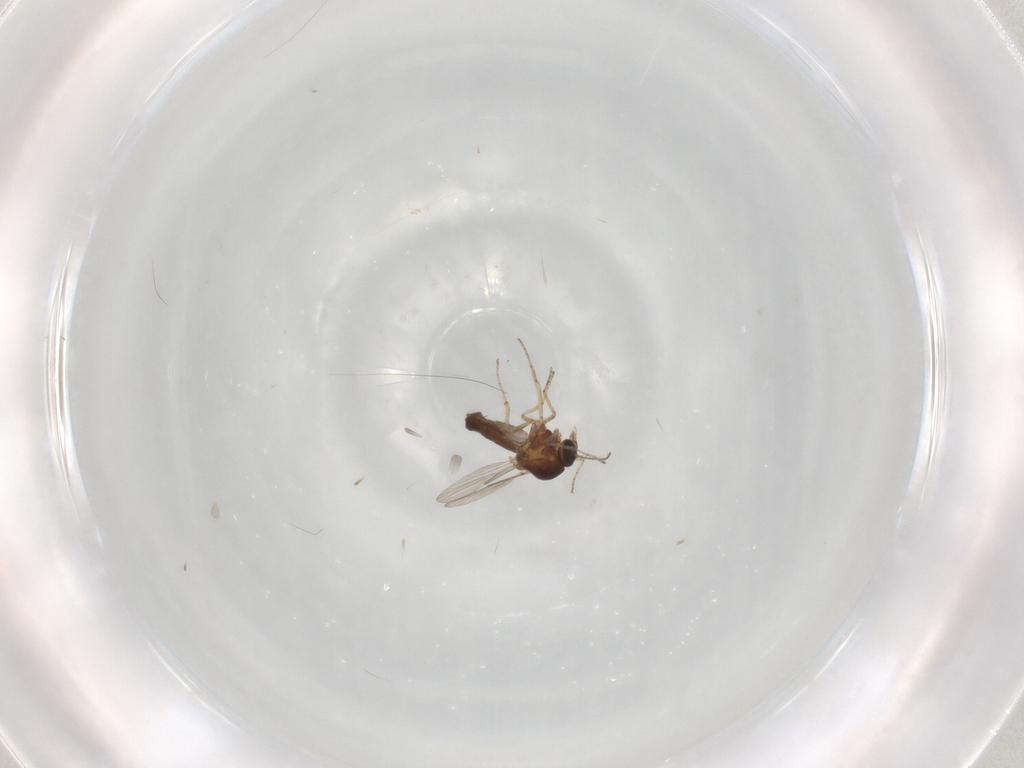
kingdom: Animalia
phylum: Arthropoda
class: Insecta
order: Diptera
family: Ceratopogonidae
